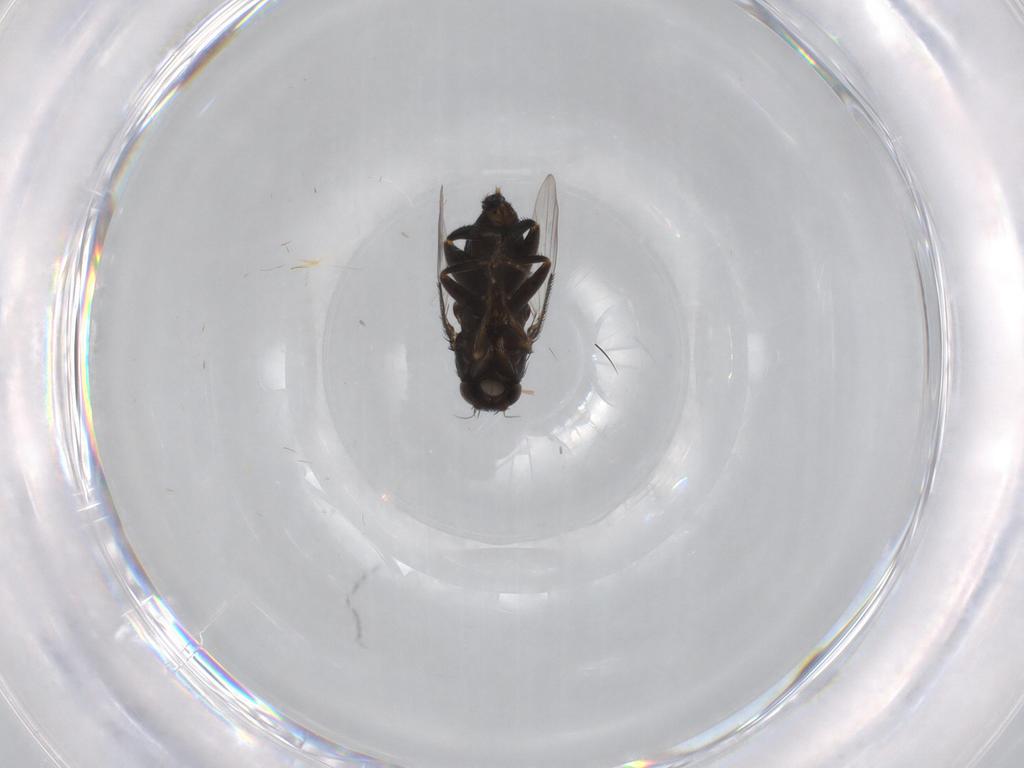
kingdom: Animalia
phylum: Arthropoda
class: Insecta
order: Diptera
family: Phoridae
